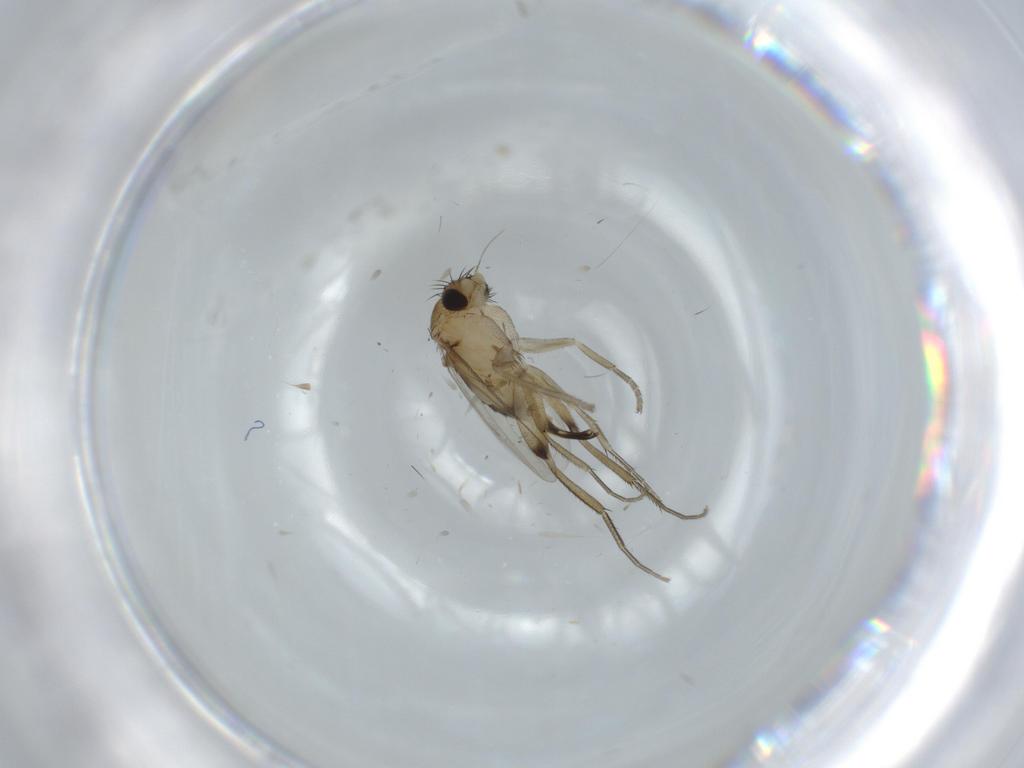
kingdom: Animalia
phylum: Arthropoda
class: Insecta
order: Diptera
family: Phoridae
